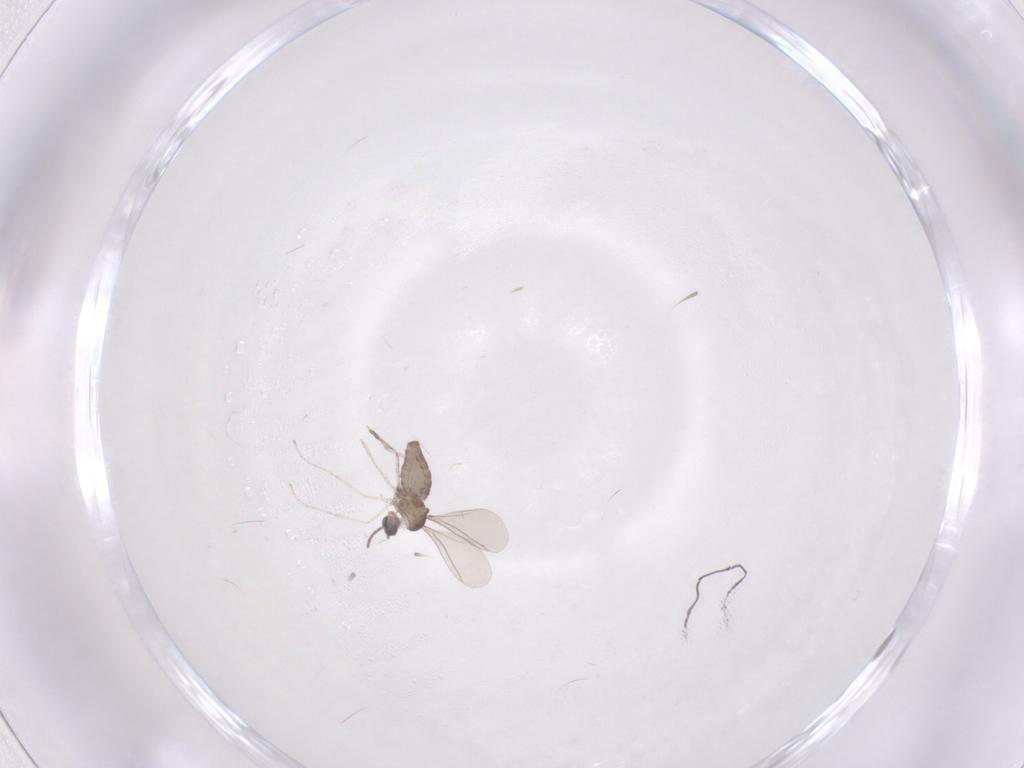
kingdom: Animalia
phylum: Arthropoda
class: Insecta
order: Diptera
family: Cecidomyiidae
